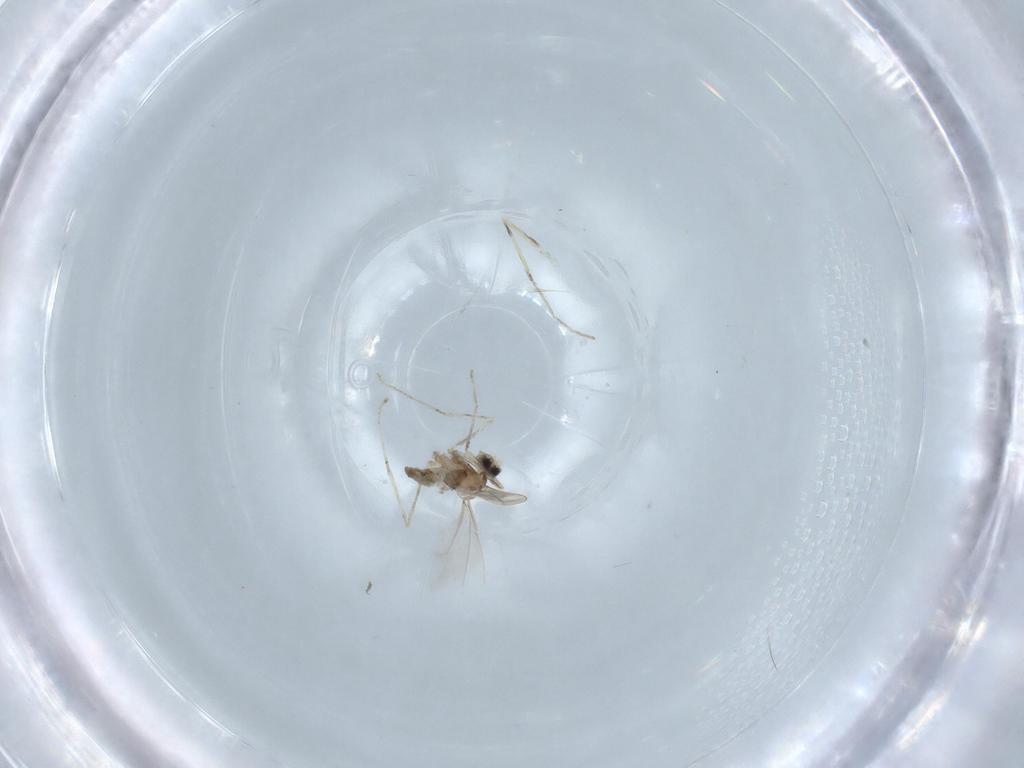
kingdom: Animalia
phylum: Arthropoda
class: Insecta
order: Diptera
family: Cecidomyiidae
